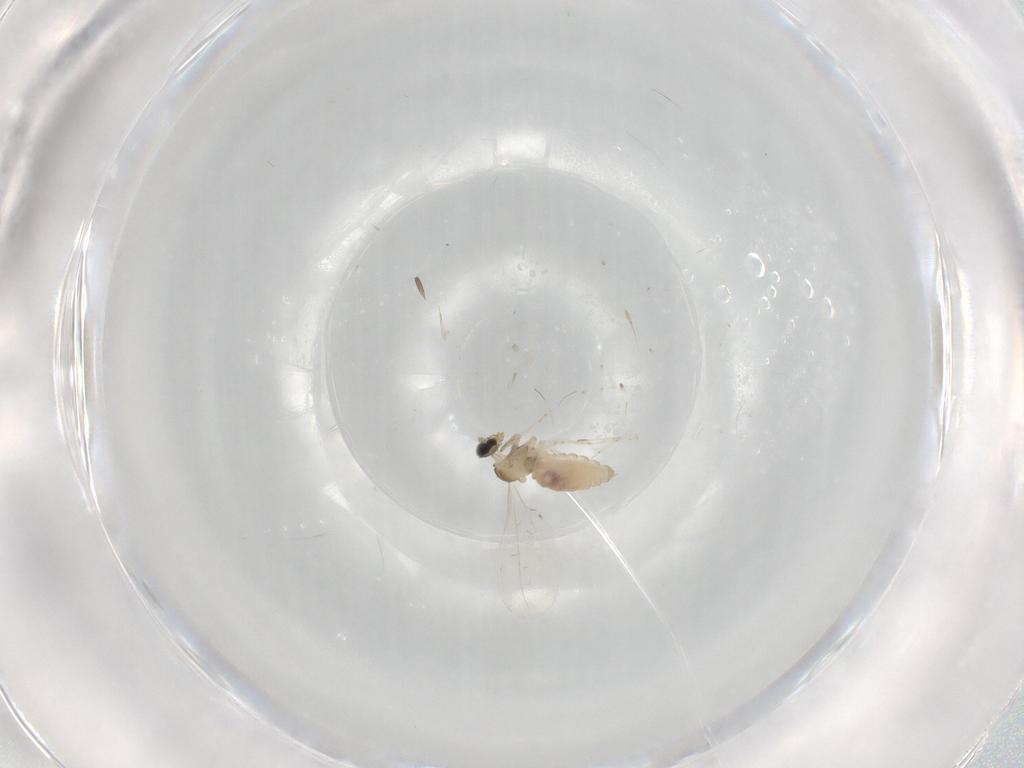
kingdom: Animalia
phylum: Arthropoda
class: Insecta
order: Diptera
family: Cecidomyiidae
